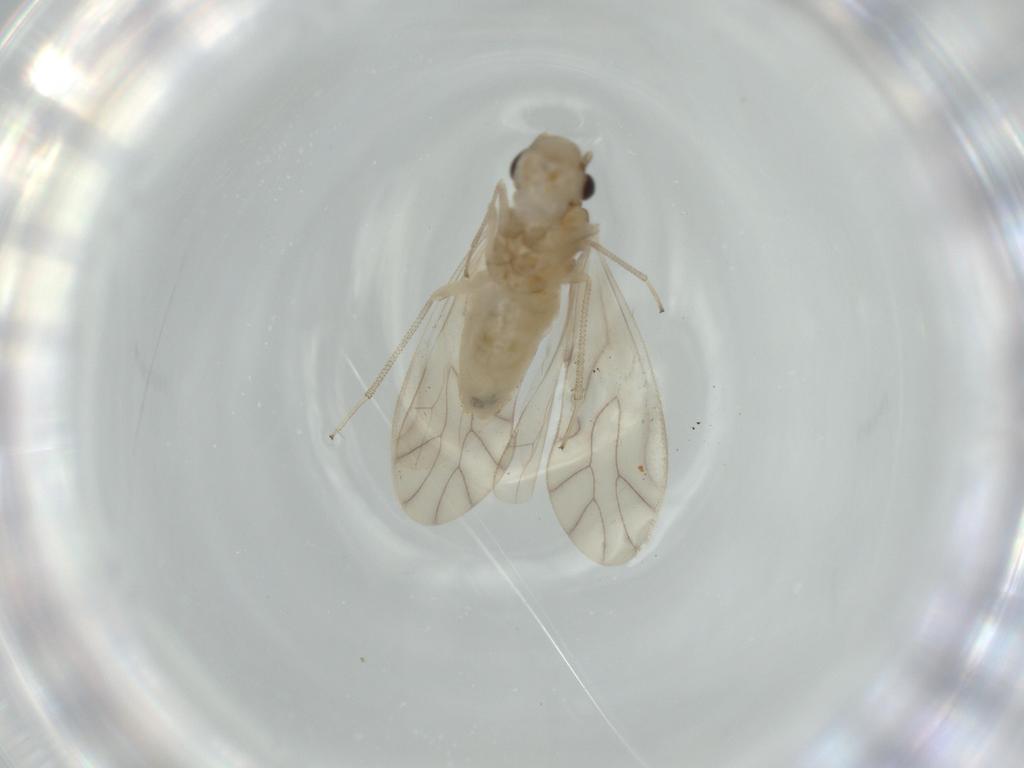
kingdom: Animalia
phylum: Arthropoda
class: Insecta
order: Psocodea
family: Caeciliusidae
